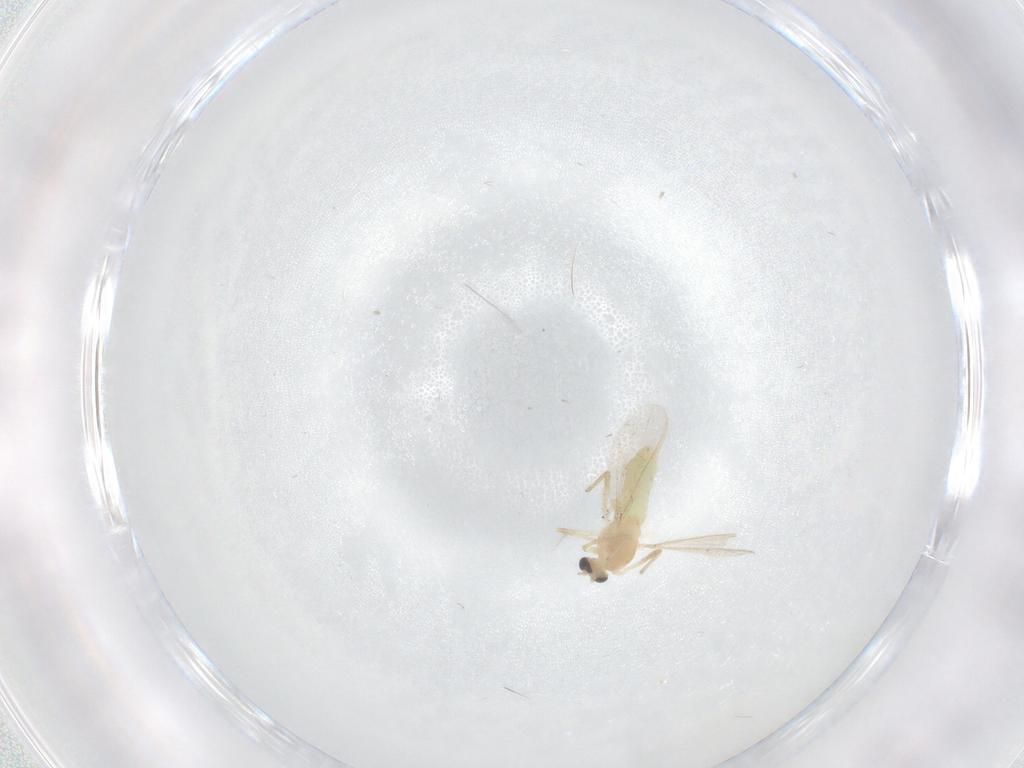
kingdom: Animalia
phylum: Arthropoda
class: Insecta
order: Diptera
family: Chironomidae
